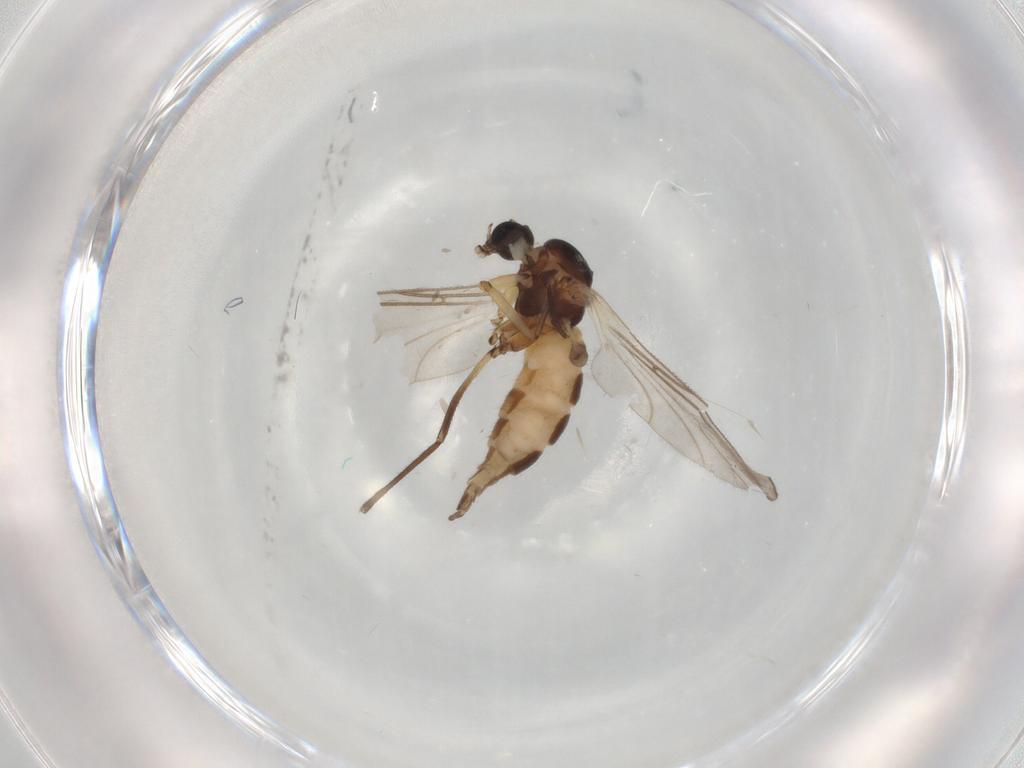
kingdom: Animalia
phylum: Arthropoda
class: Insecta
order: Diptera
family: Sciaridae
